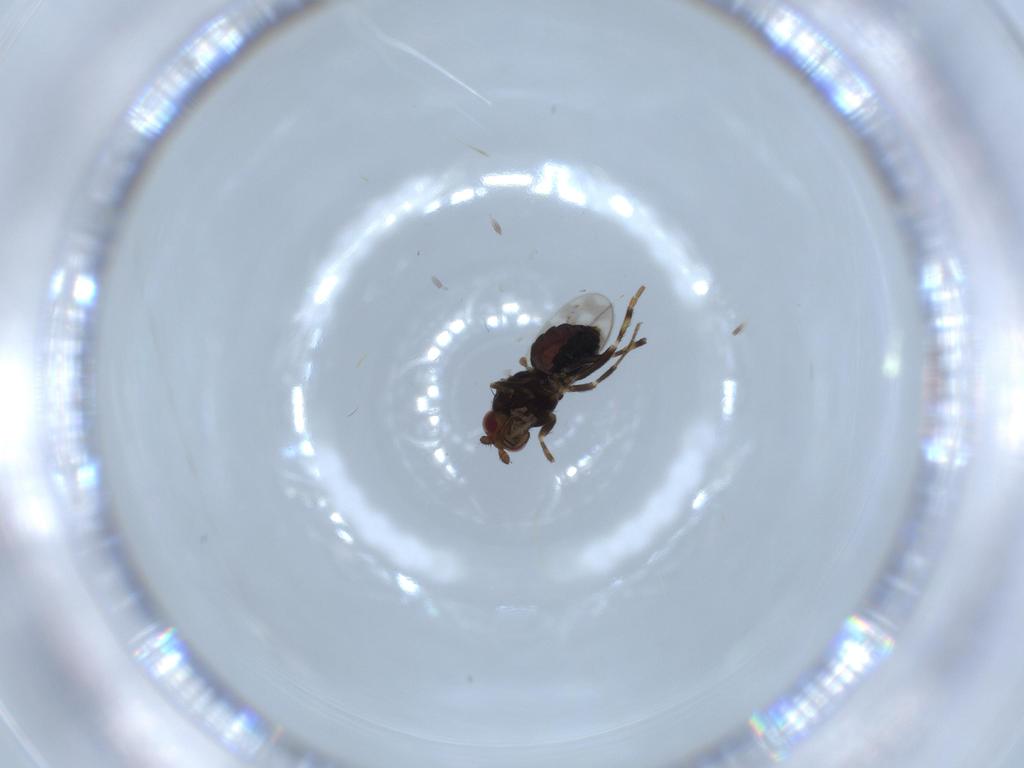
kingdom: Animalia
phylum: Arthropoda
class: Insecta
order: Diptera
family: Sphaeroceridae
